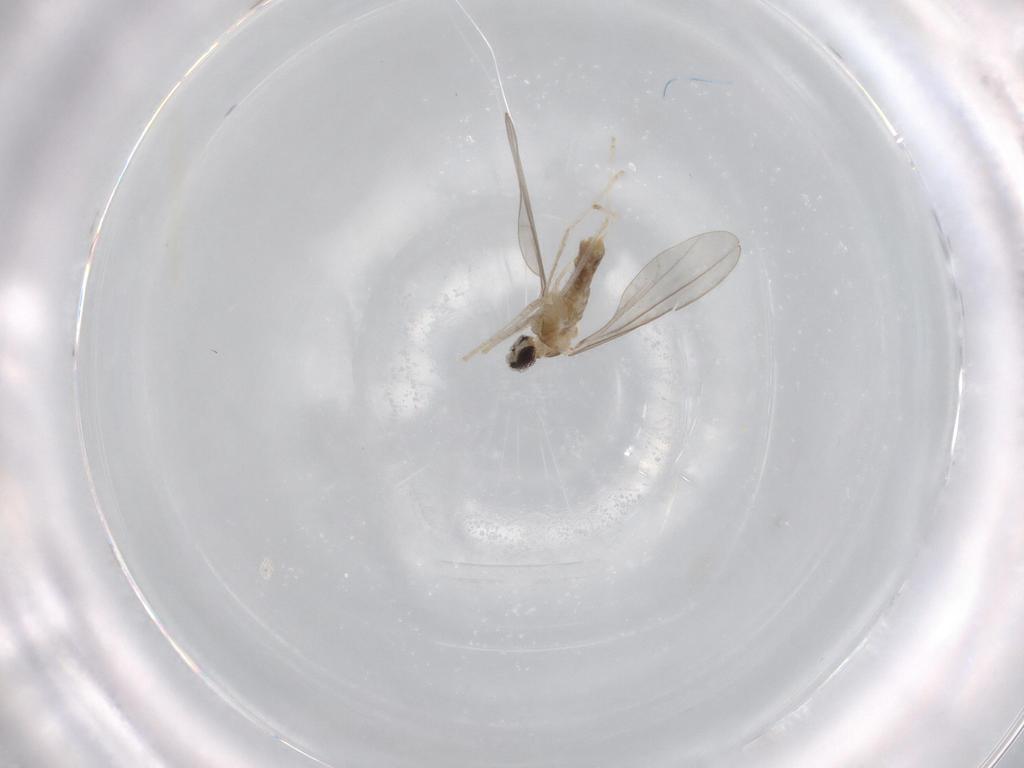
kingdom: Animalia
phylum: Arthropoda
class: Insecta
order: Diptera
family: Cecidomyiidae
